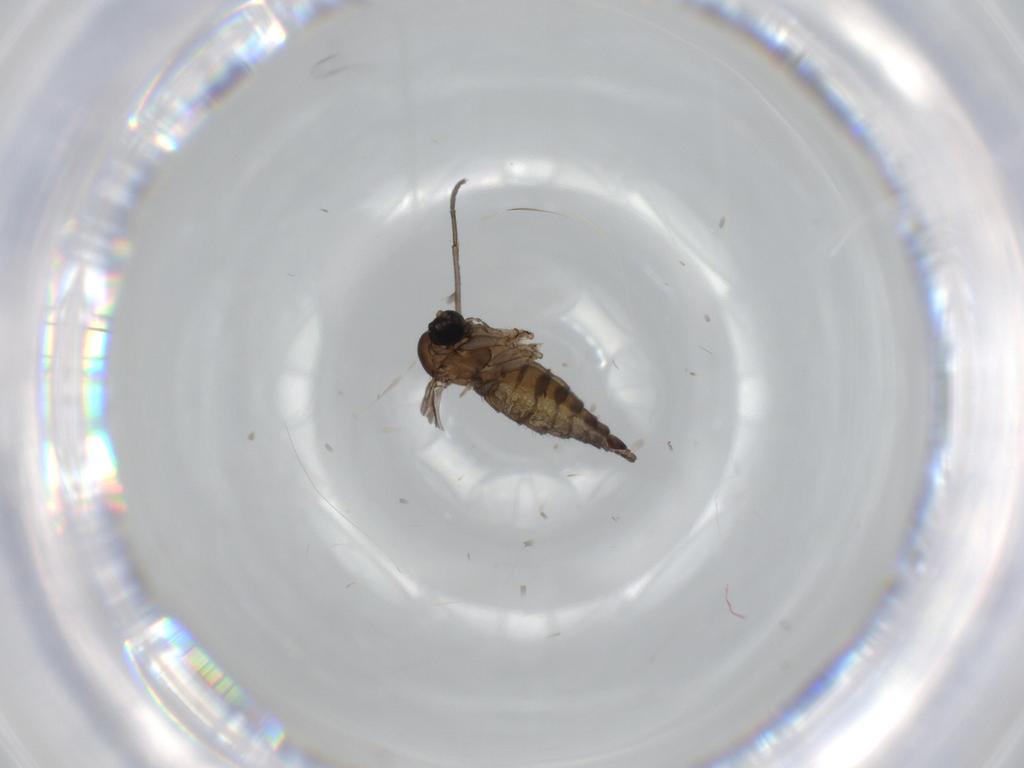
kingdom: Animalia
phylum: Arthropoda
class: Insecta
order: Diptera
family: Sciaridae
